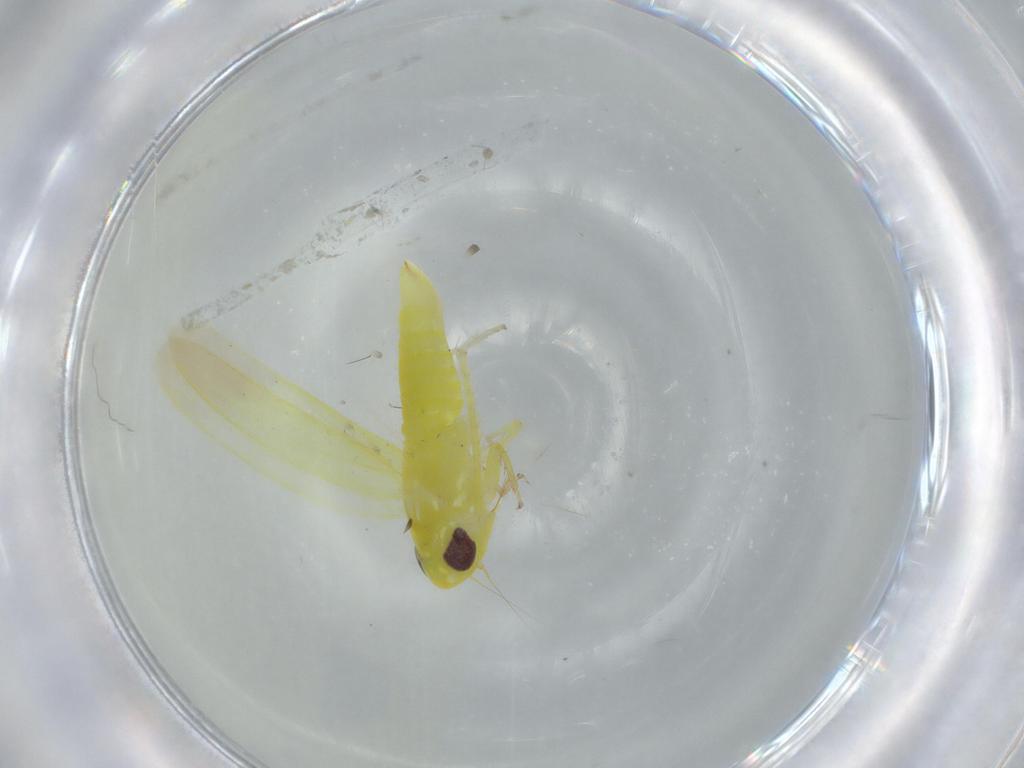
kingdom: Animalia
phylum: Arthropoda
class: Insecta
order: Hemiptera
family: Cicadellidae
